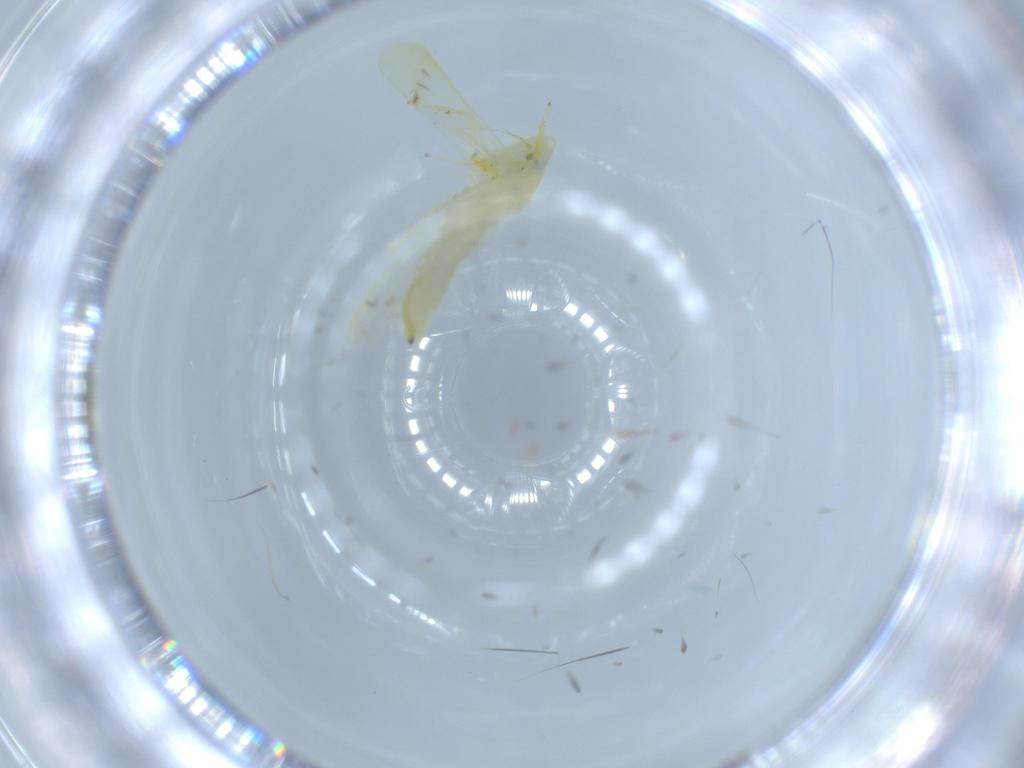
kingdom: Animalia
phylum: Arthropoda
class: Insecta
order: Hemiptera
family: Cicadellidae
